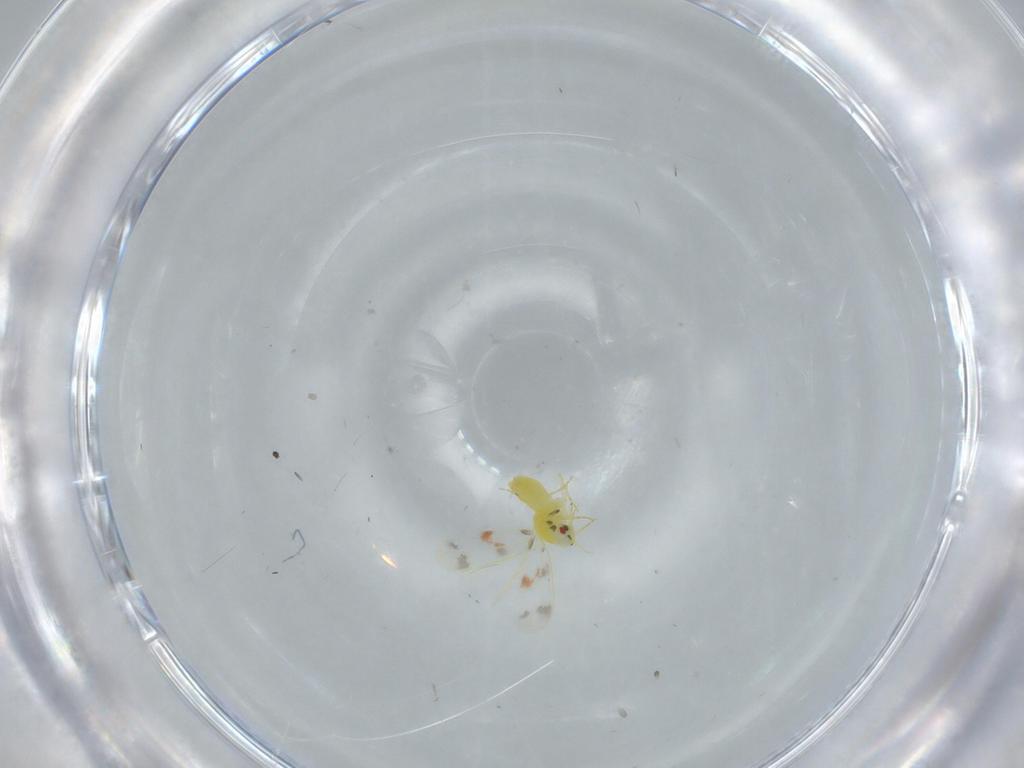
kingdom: Animalia
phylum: Arthropoda
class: Insecta
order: Hemiptera
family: Aleyrodidae
